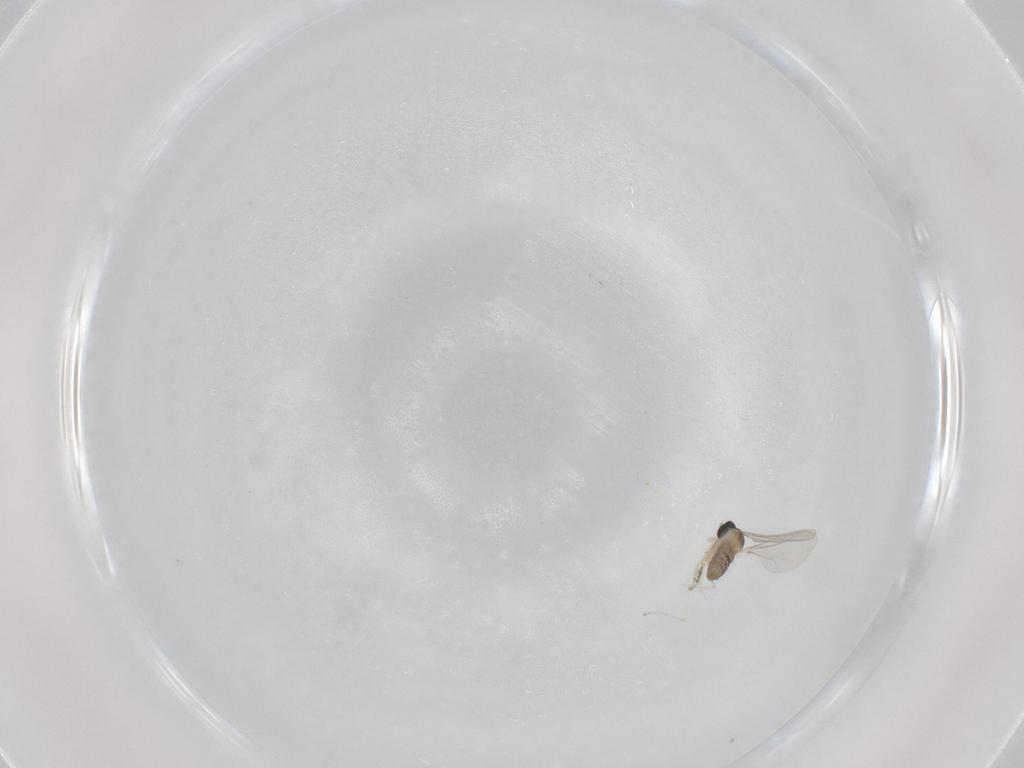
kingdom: Animalia
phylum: Arthropoda
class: Insecta
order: Diptera
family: Cecidomyiidae
